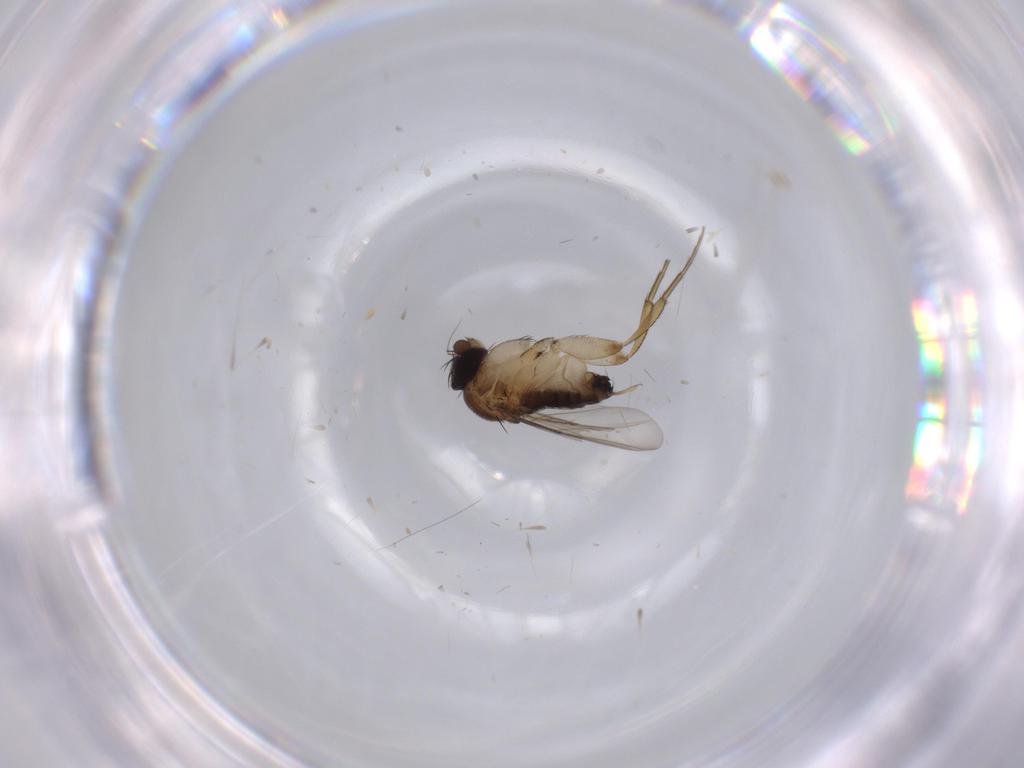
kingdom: Animalia
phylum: Arthropoda
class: Insecta
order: Diptera
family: Phoridae
